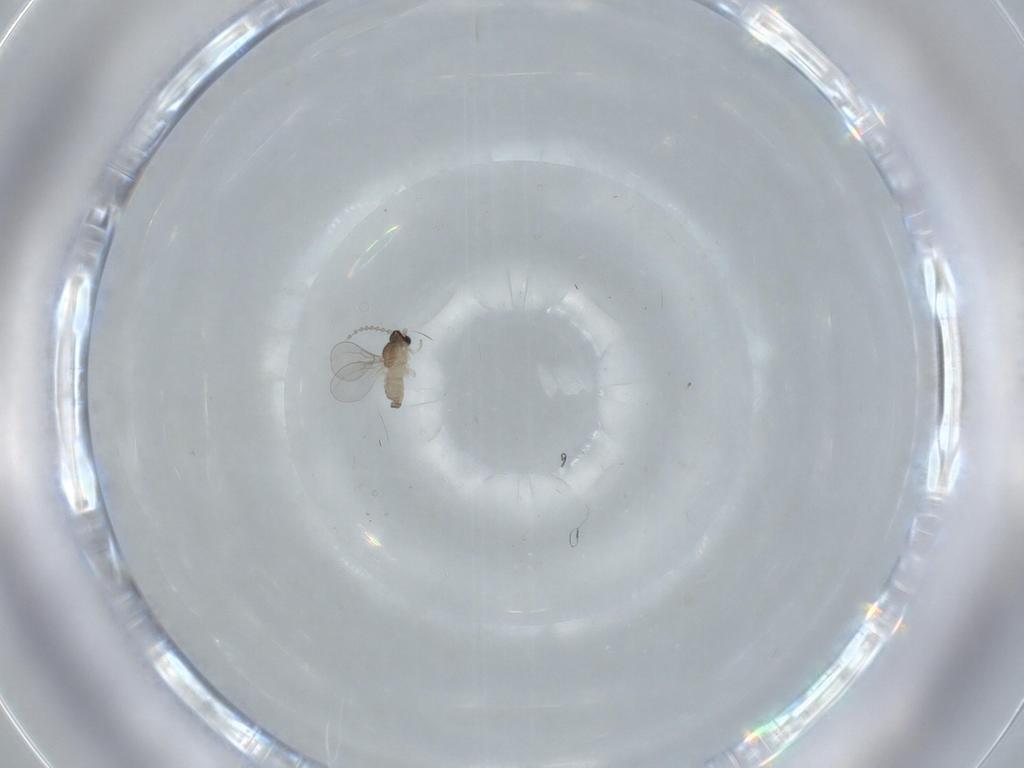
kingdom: Animalia
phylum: Arthropoda
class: Insecta
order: Diptera
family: Cecidomyiidae
